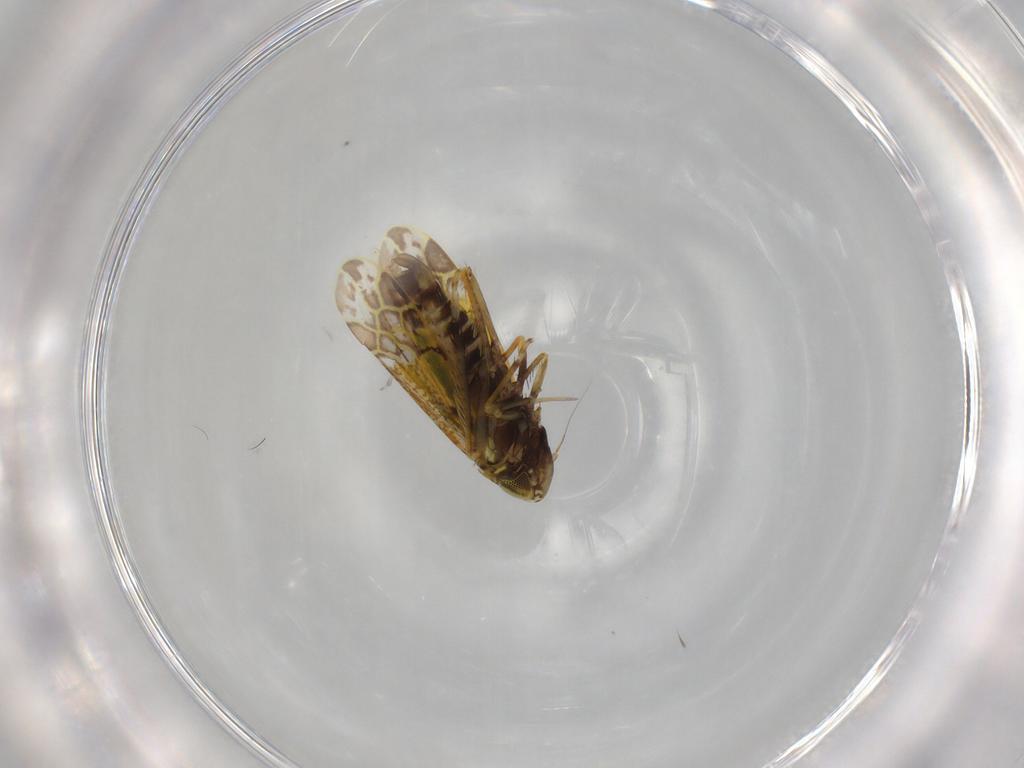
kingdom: Animalia
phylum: Arthropoda
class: Insecta
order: Hemiptera
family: Cicadellidae
